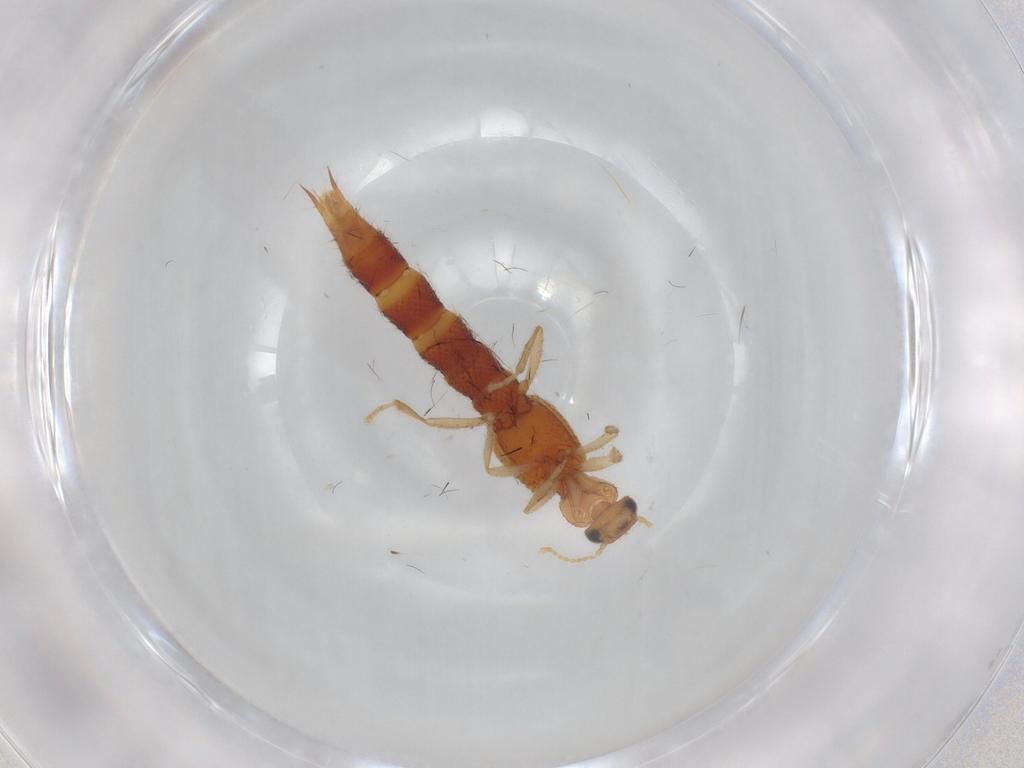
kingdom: Animalia
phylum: Arthropoda
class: Insecta
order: Coleoptera
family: Staphylinidae
